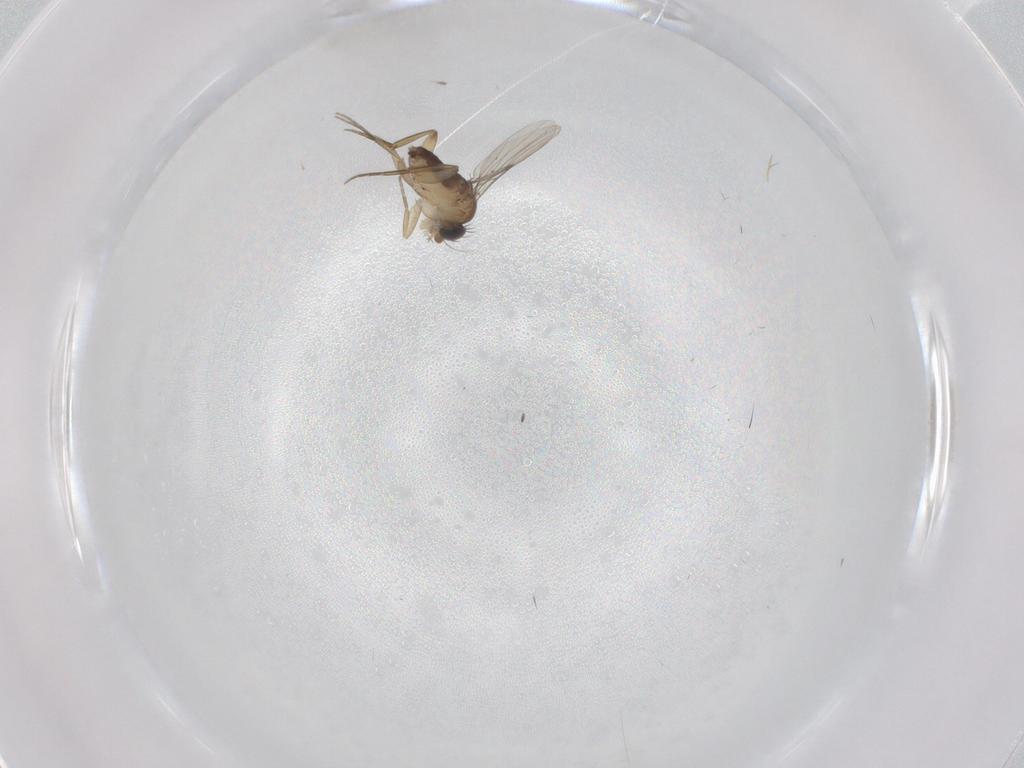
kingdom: Animalia
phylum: Arthropoda
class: Insecta
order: Diptera
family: Phoridae
